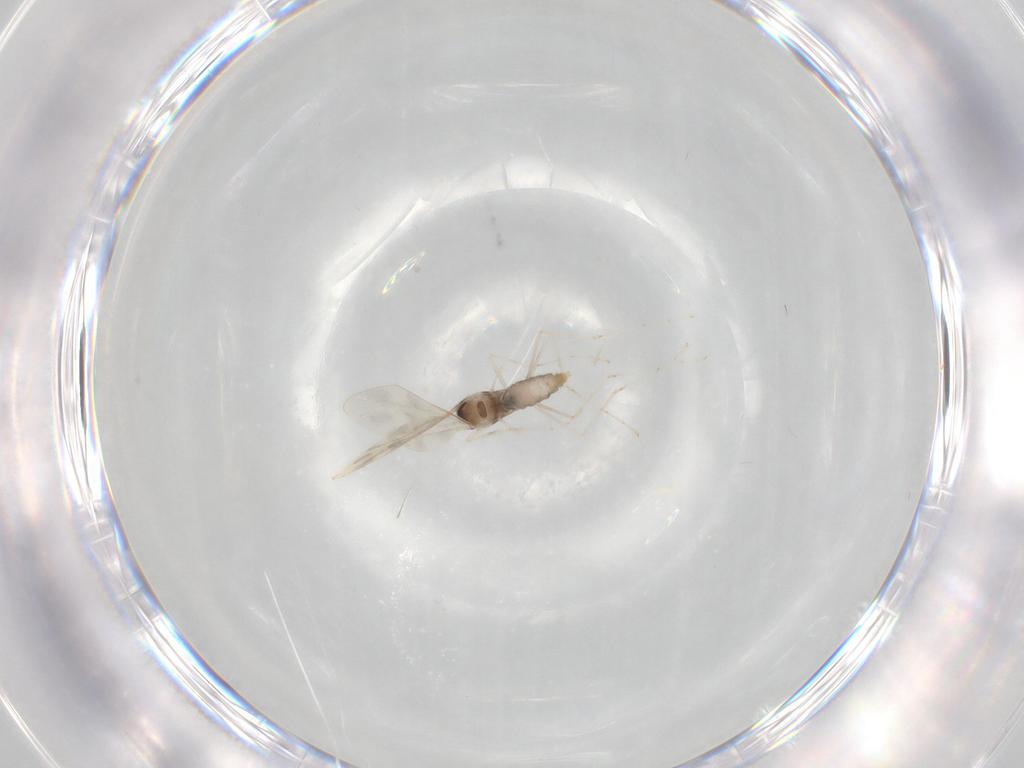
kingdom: Animalia
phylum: Arthropoda
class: Insecta
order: Diptera
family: Cecidomyiidae
